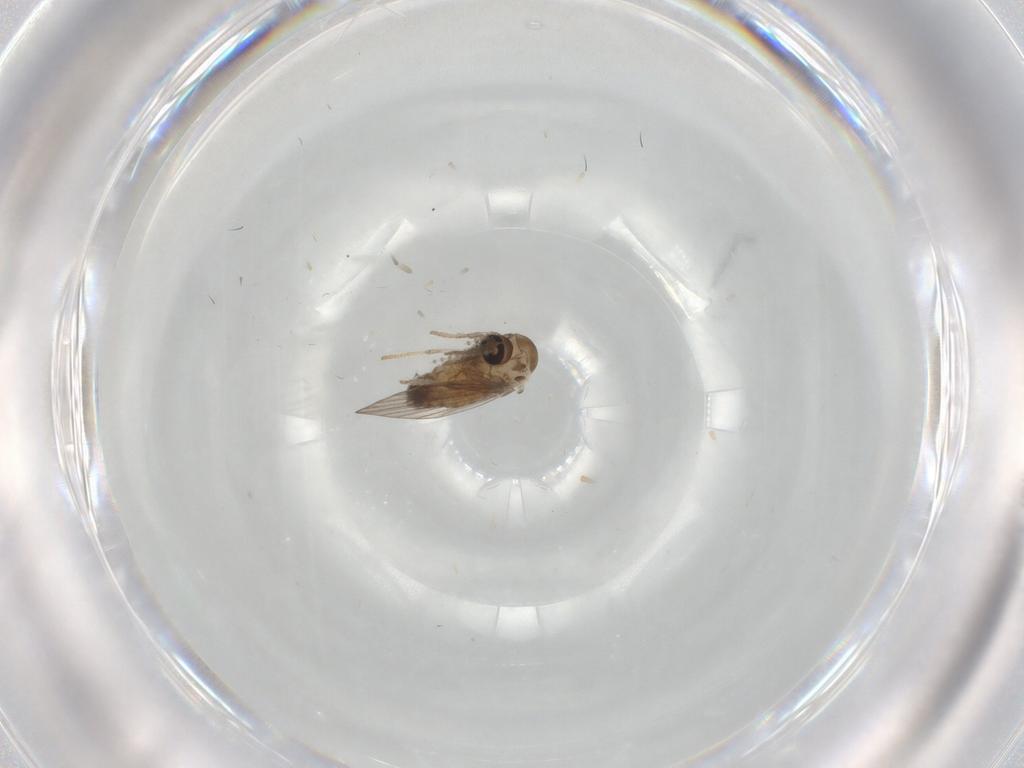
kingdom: Animalia
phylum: Arthropoda
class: Insecta
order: Diptera
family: Psychodidae
